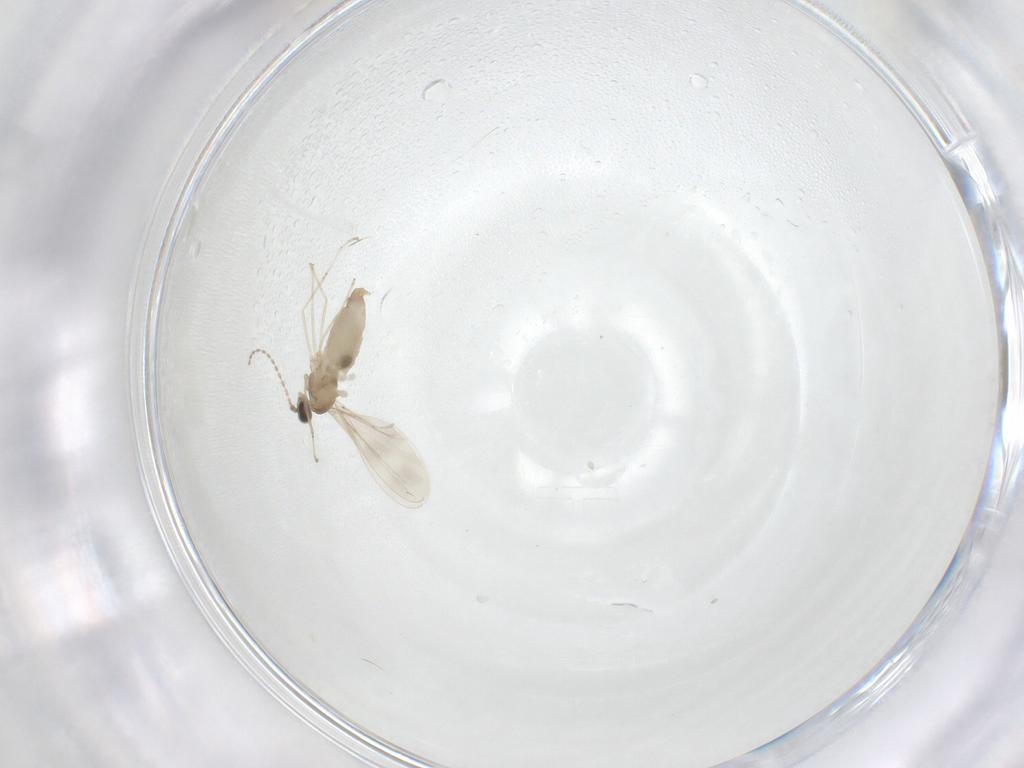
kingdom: Animalia
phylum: Arthropoda
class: Insecta
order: Diptera
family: Cecidomyiidae
